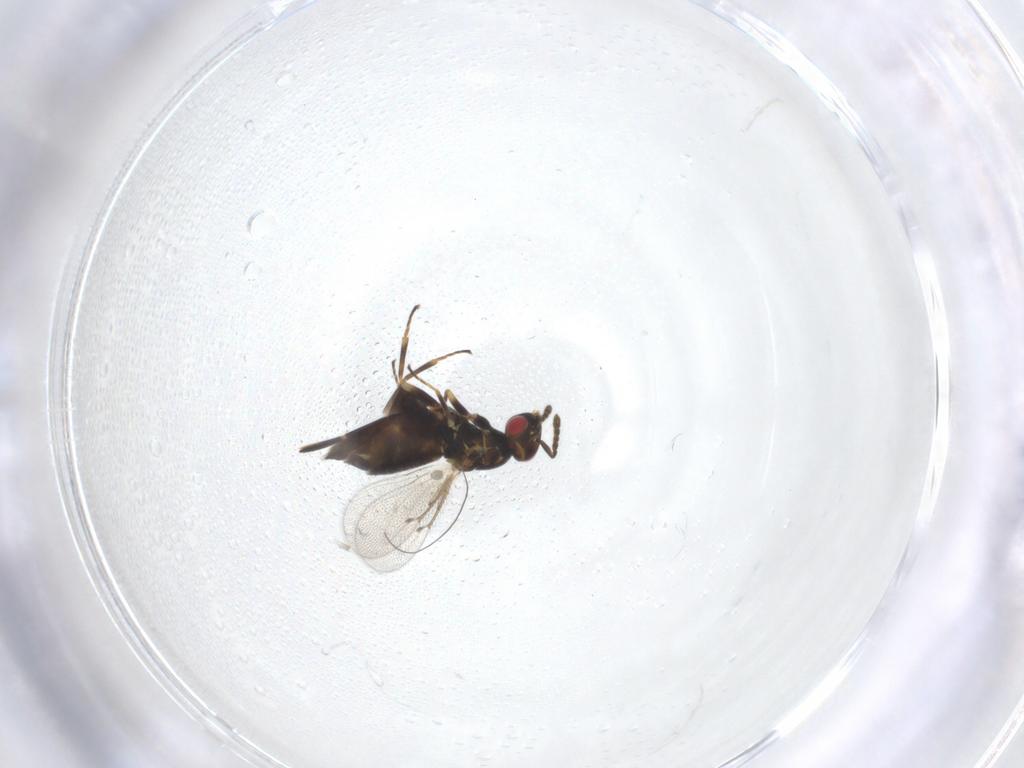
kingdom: Animalia
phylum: Arthropoda
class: Insecta
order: Hymenoptera
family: Eulophidae
